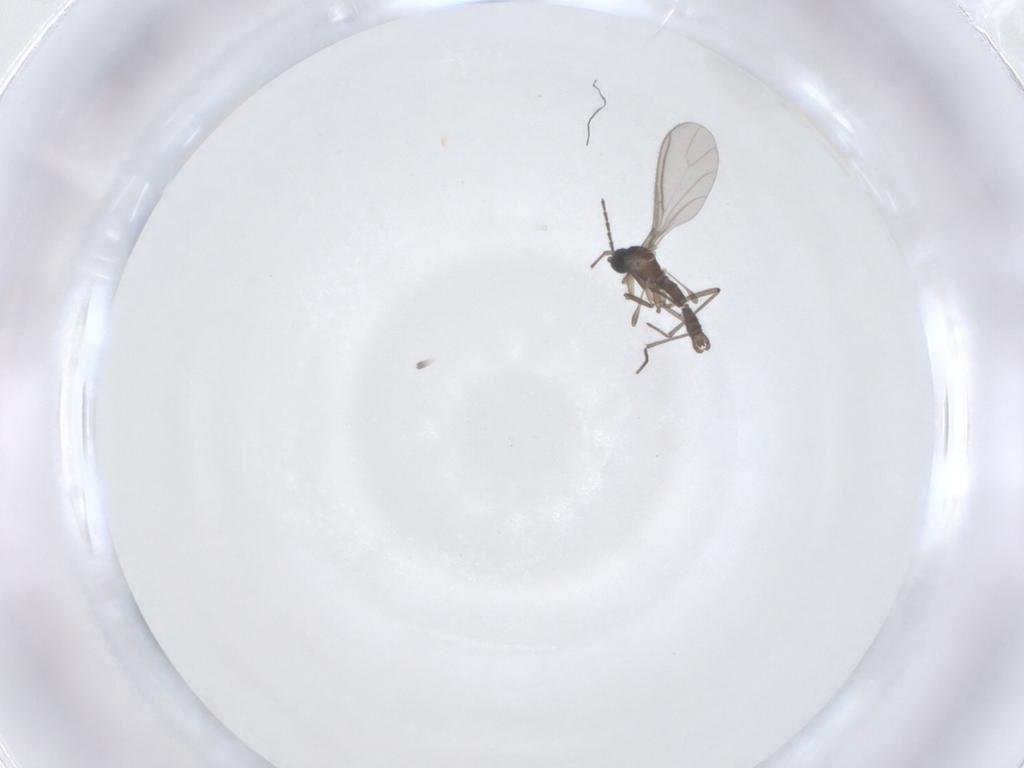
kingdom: Animalia
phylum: Arthropoda
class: Insecta
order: Diptera
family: Sciaridae
